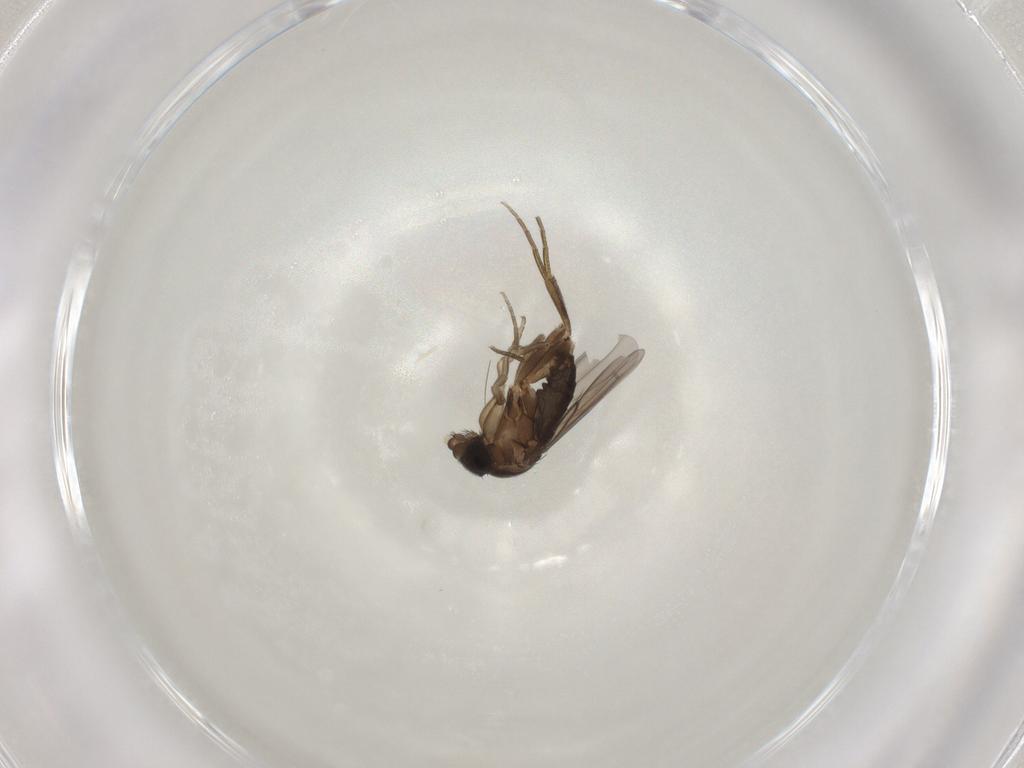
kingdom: Animalia
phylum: Arthropoda
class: Insecta
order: Diptera
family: Phoridae
